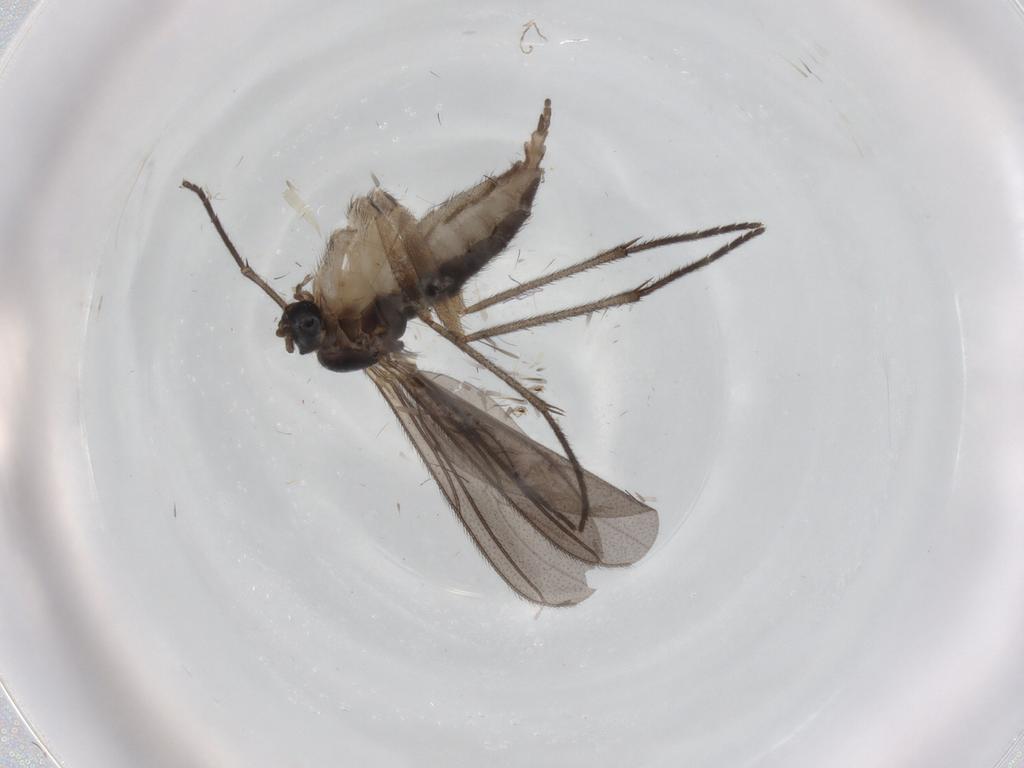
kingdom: Animalia
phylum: Arthropoda
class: Insecta
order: Diptera
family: Sciaridae
